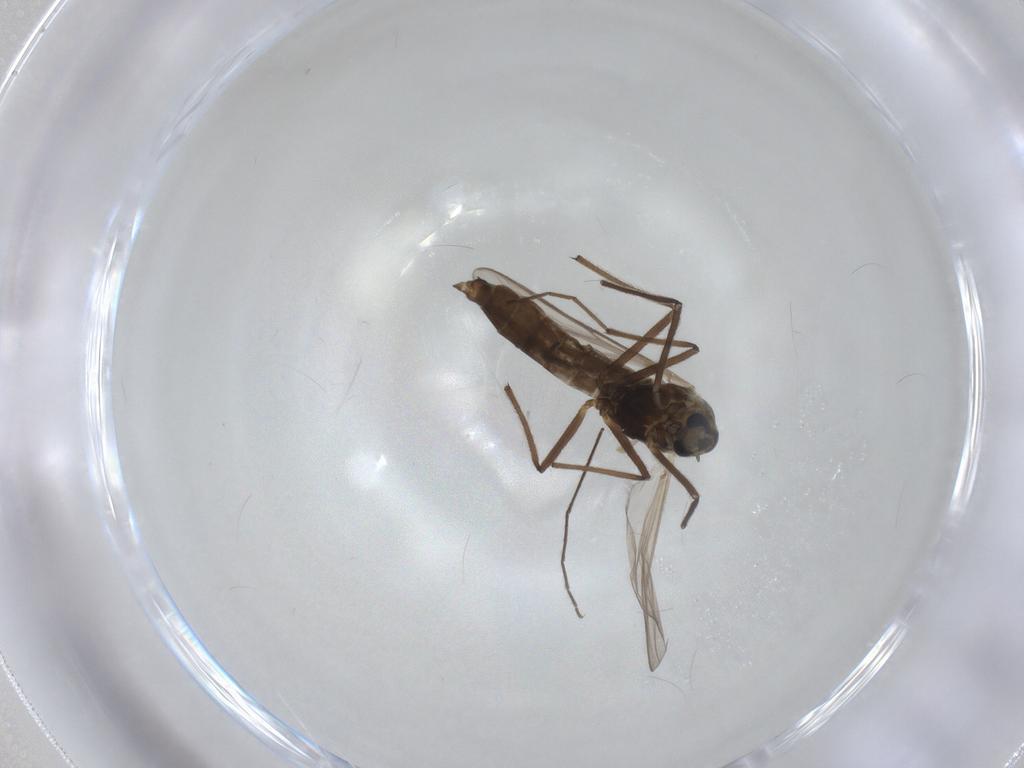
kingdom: Animalia
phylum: Arthropoda
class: Insecta
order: Diptera
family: Chironomidae
